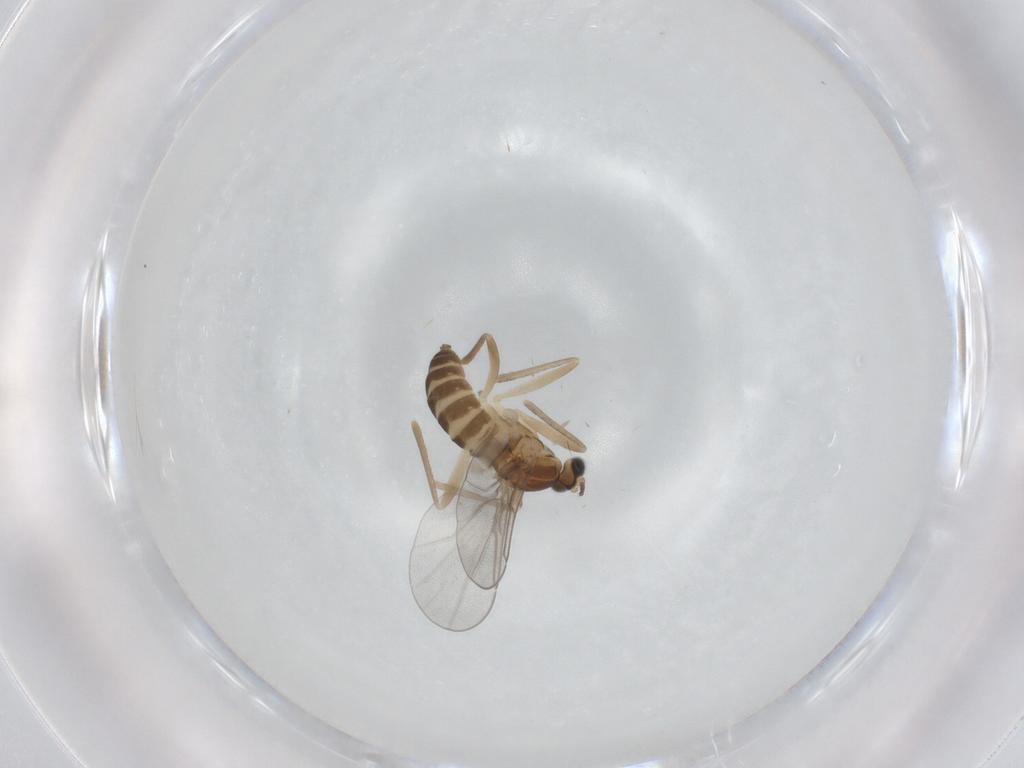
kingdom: Animalia
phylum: Arthropoda
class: Insecta
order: Diptera
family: Cecidomyiidae
